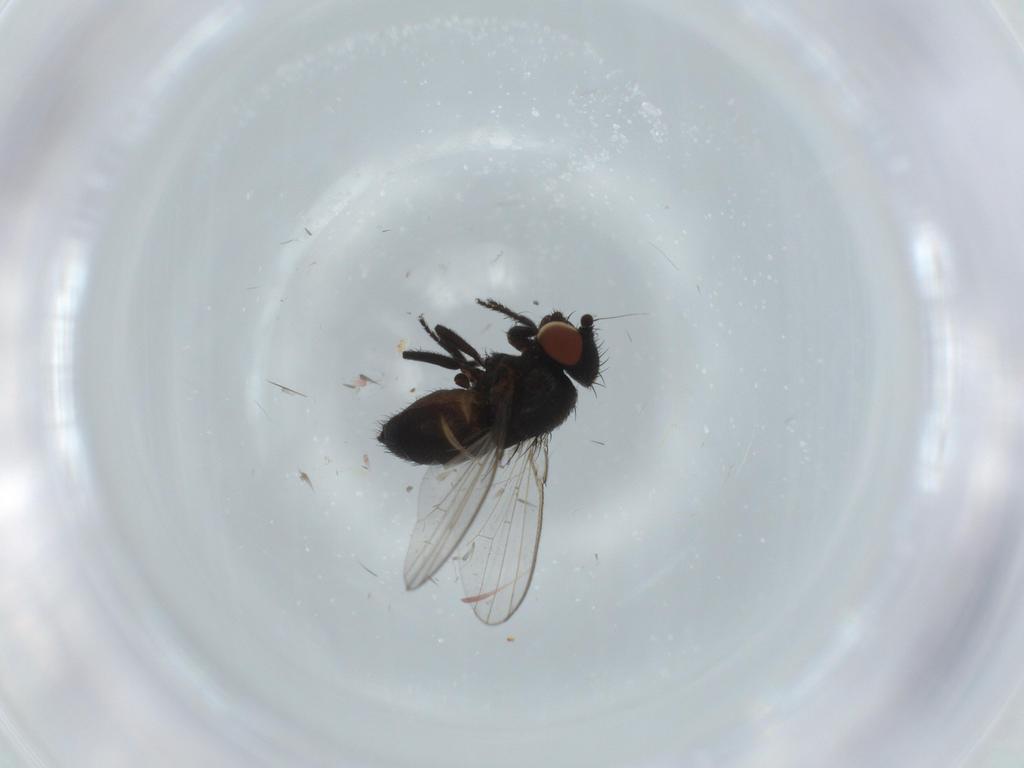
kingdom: Animalia
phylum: Arthropoda
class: Insecta
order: Diptera
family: Milichiidae
